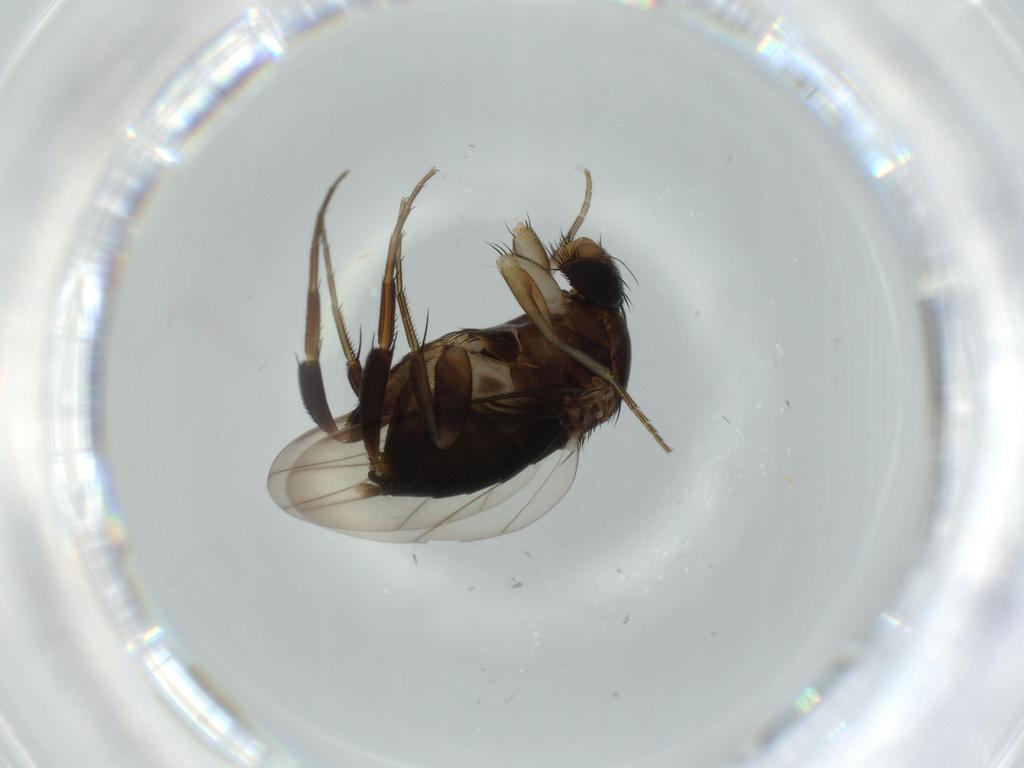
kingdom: Animalia
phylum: Arthropoda
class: Insecta
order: Diptera
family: Phoridae
